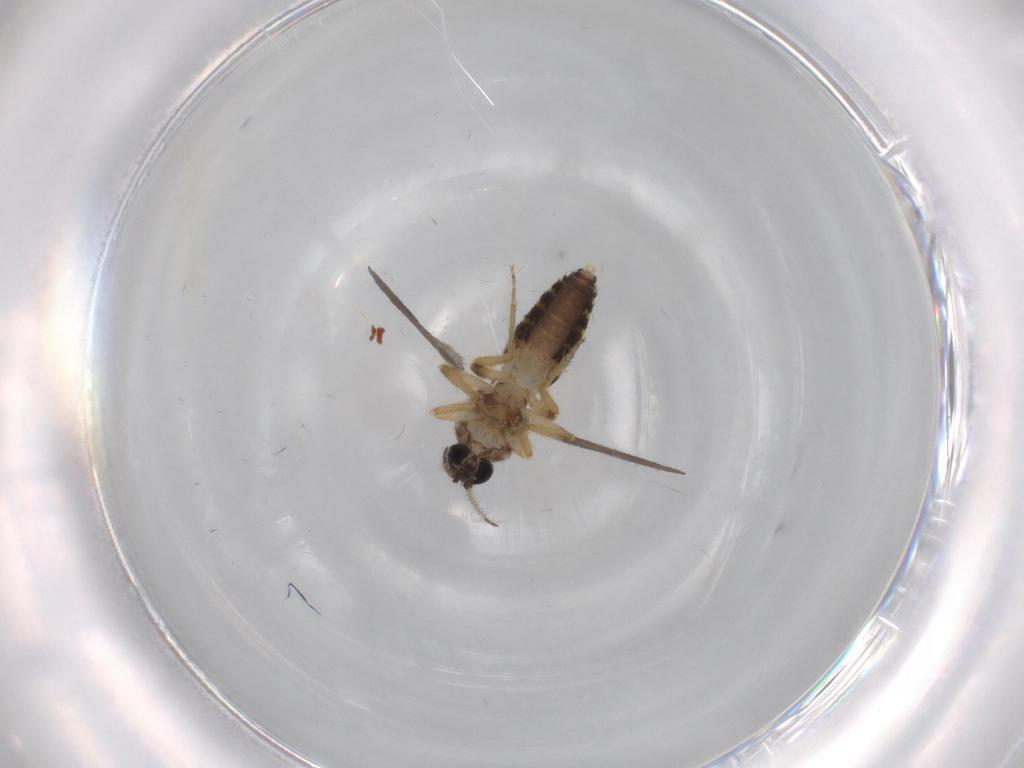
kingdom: Animalia
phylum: Arthropoda
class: Insecta
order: Diptera
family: Ceratopogonidae
